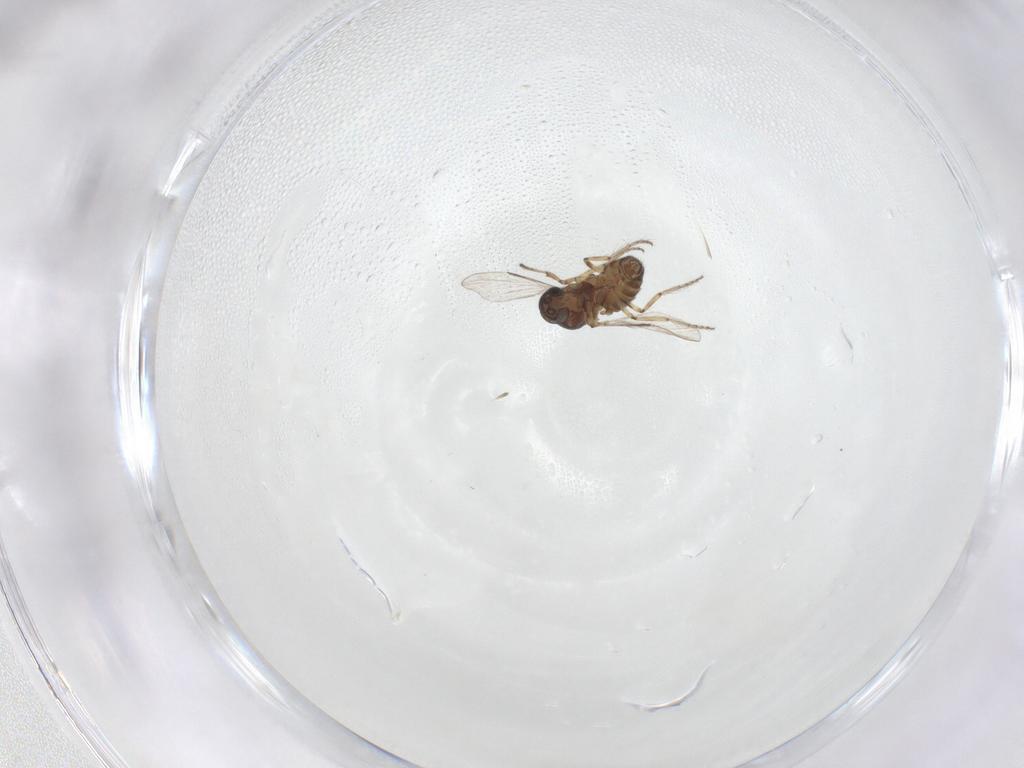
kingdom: Animalia
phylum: Arthropoda
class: Insecta
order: Diptera
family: Ceratopogonidae
